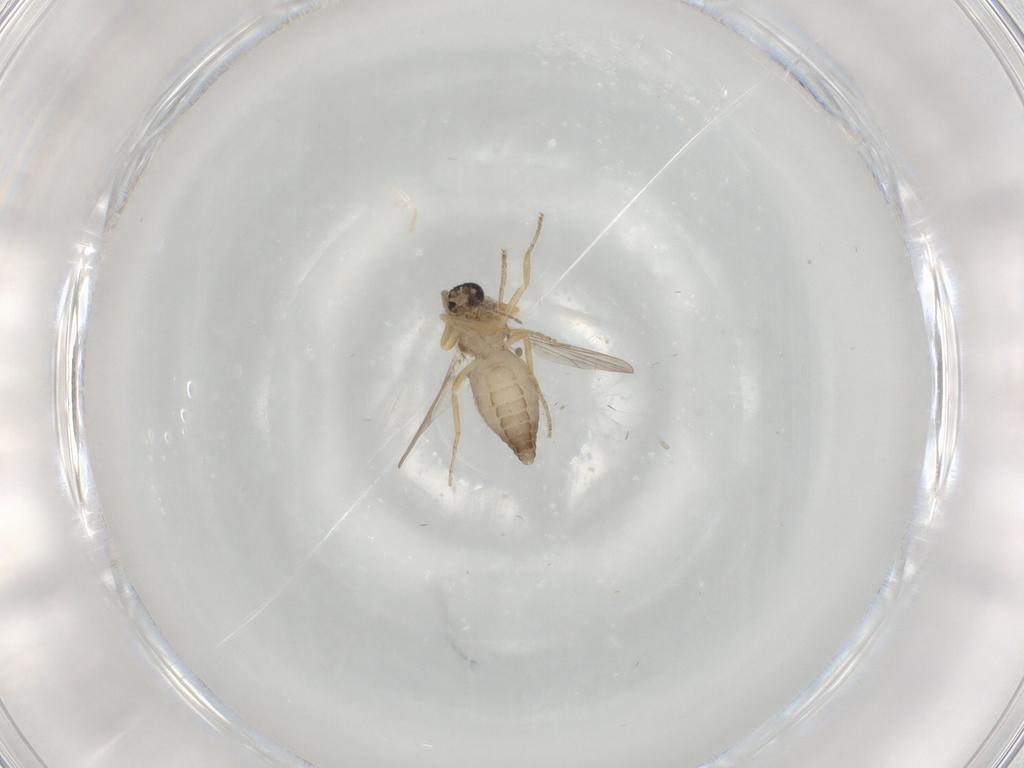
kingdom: Animalia
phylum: Arthropoda
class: Insecta
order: Diptera
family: Ceratopogonidae
